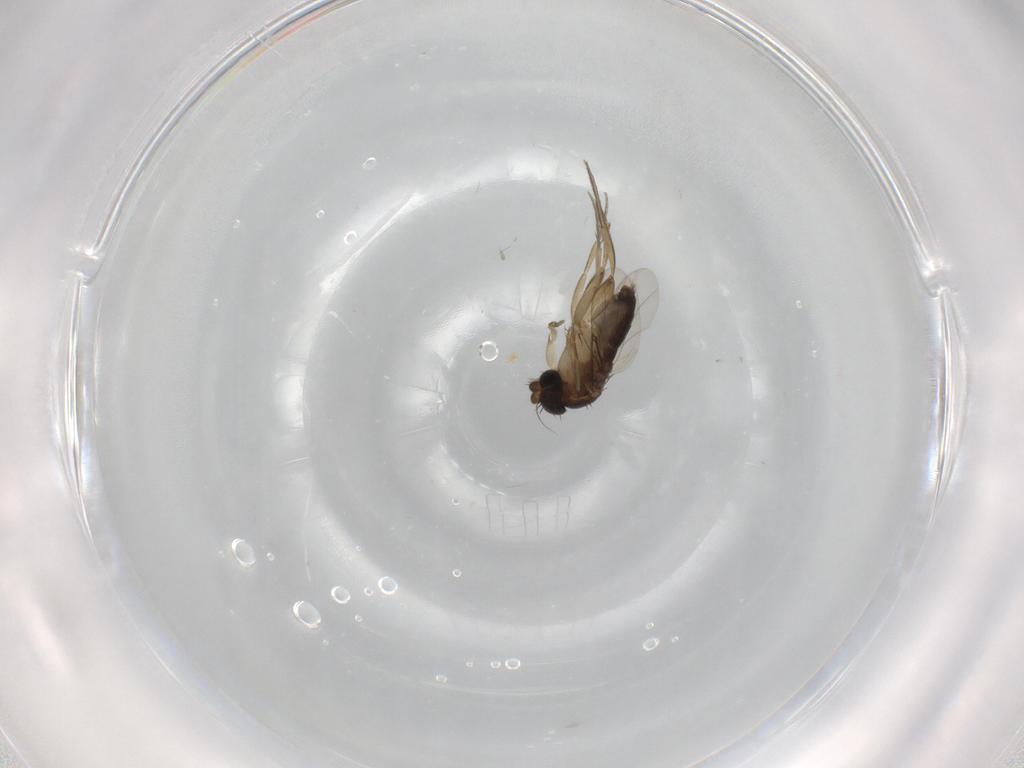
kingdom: Animalia
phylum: Arthropoda
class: Insecta
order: Diptera
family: Phoridae
